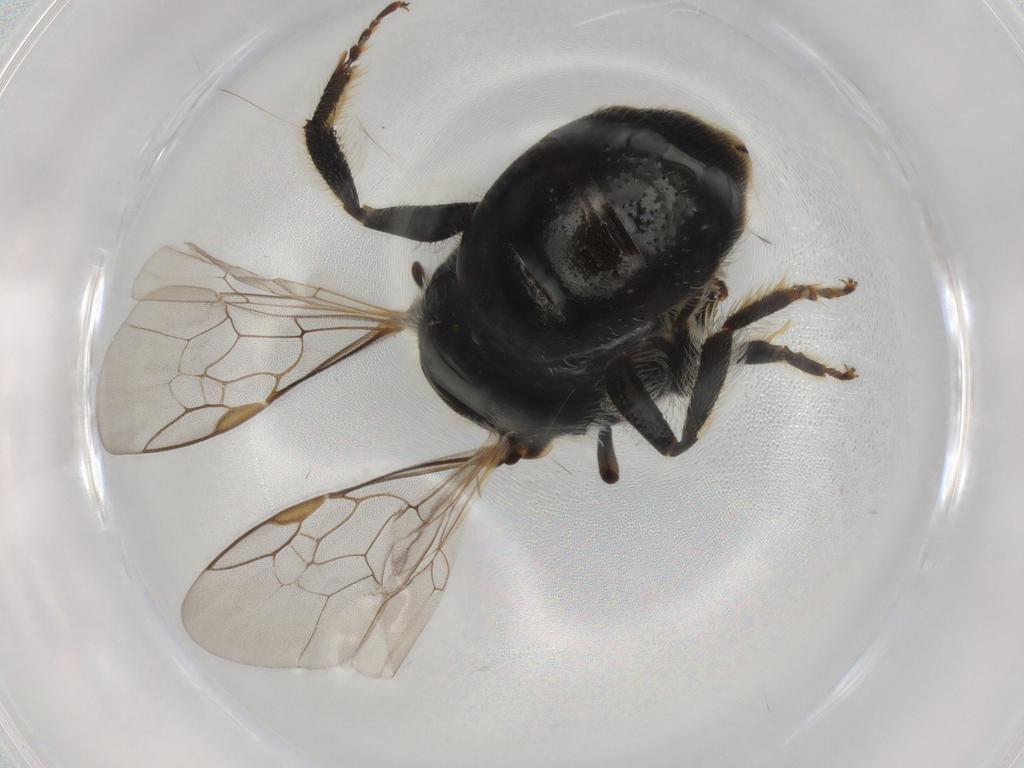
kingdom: Animalia
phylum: Arthropoda
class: Insecta
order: Hymenoptera
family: Halictidae
